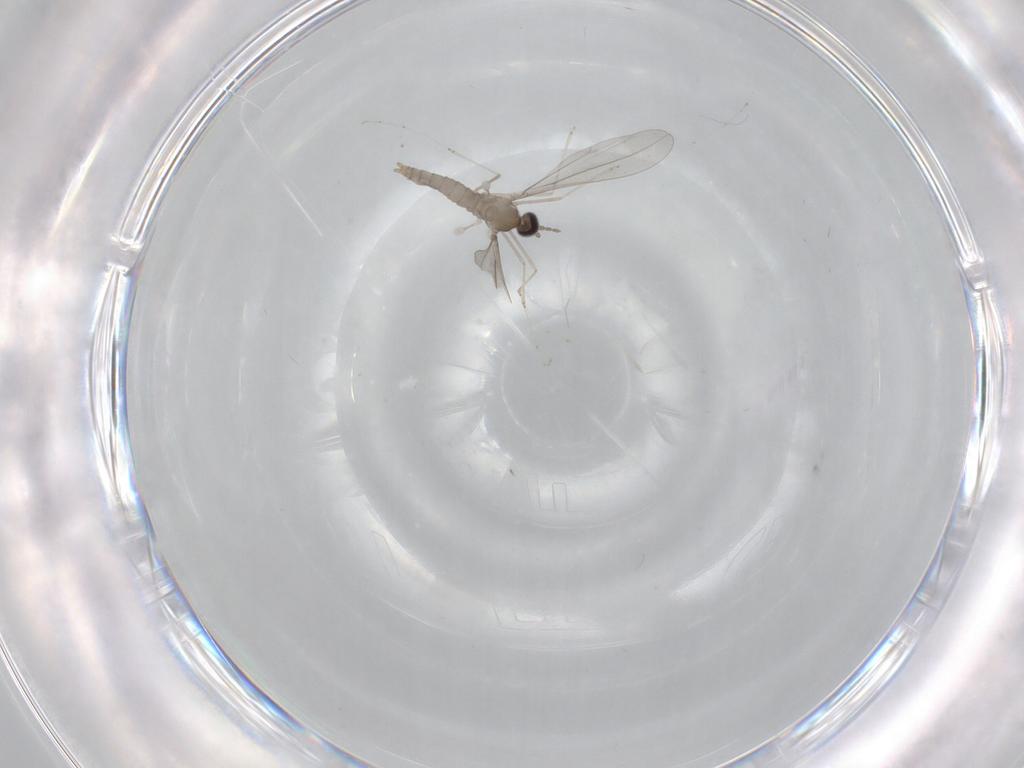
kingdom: Animalia
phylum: Arthropoda
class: Insecta
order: Diptera
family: Cecidomyiidae
